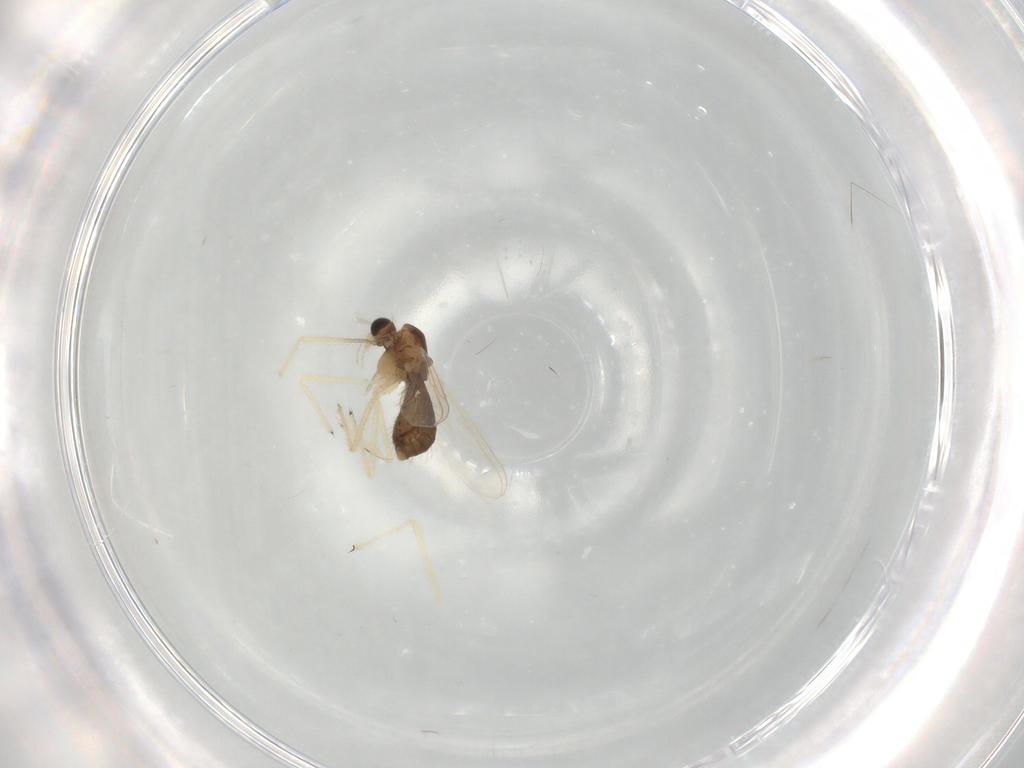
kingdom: Animalia
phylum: Arthropoda
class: Insecta
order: Diptera
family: Chironomidae
